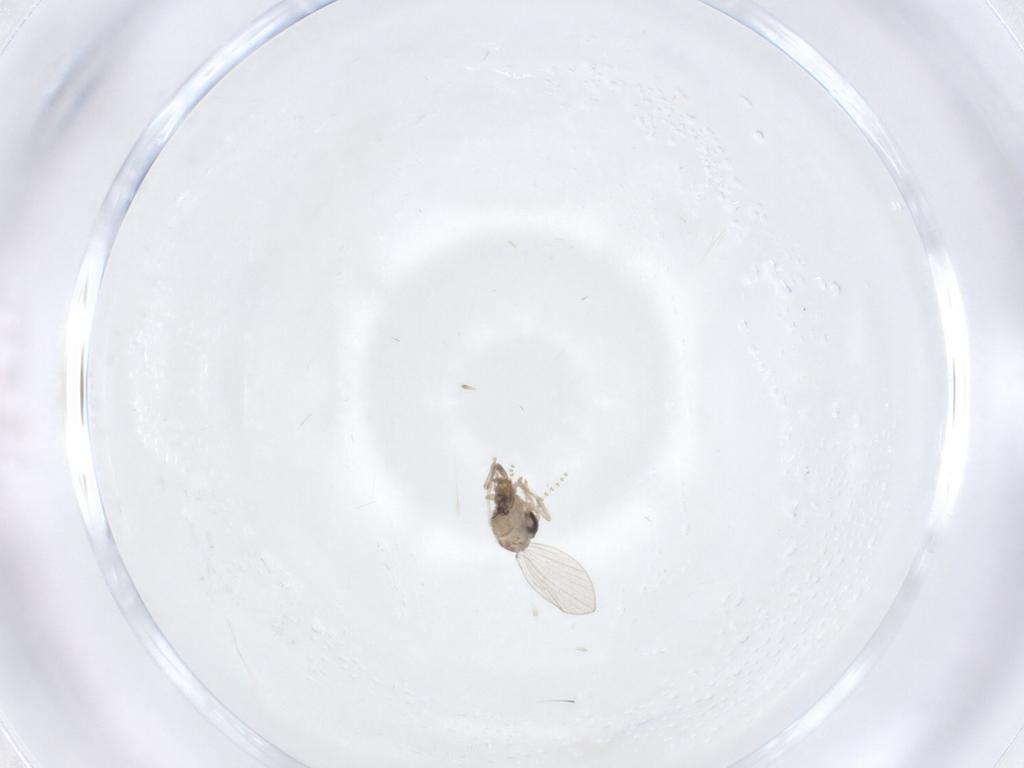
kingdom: Animalia
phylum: Arthropoda
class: Insecta
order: Diptera
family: Psychodidae
